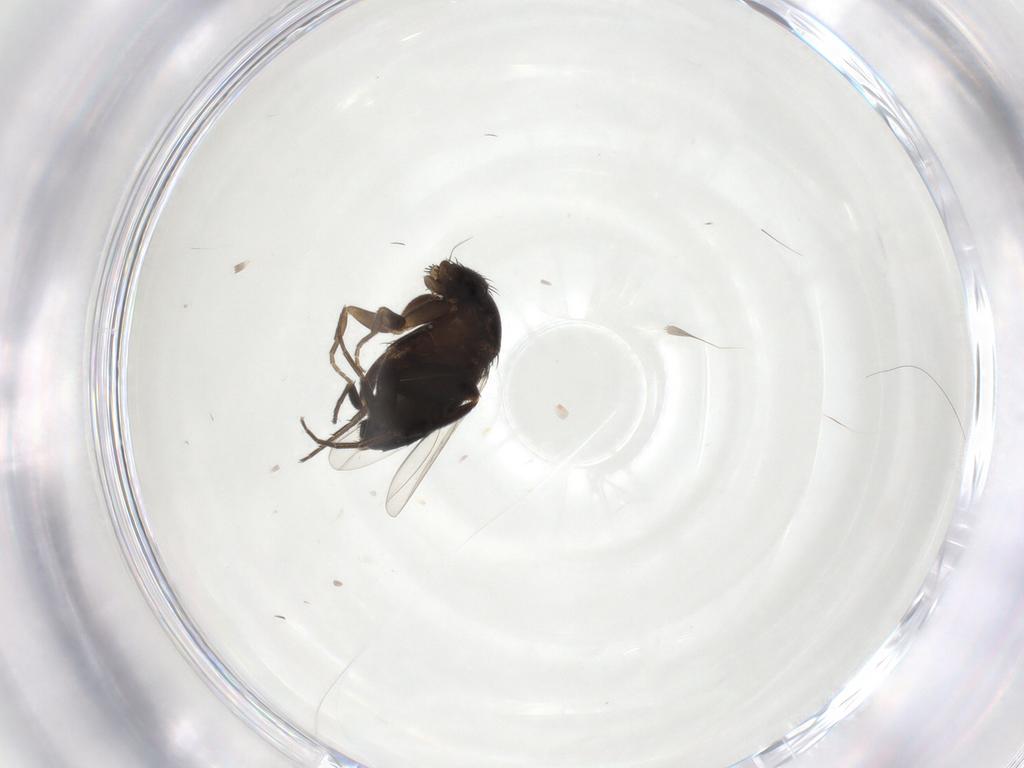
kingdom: Animalia
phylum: Arthropoda
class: Insecta
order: Diptera
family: Phoridae
